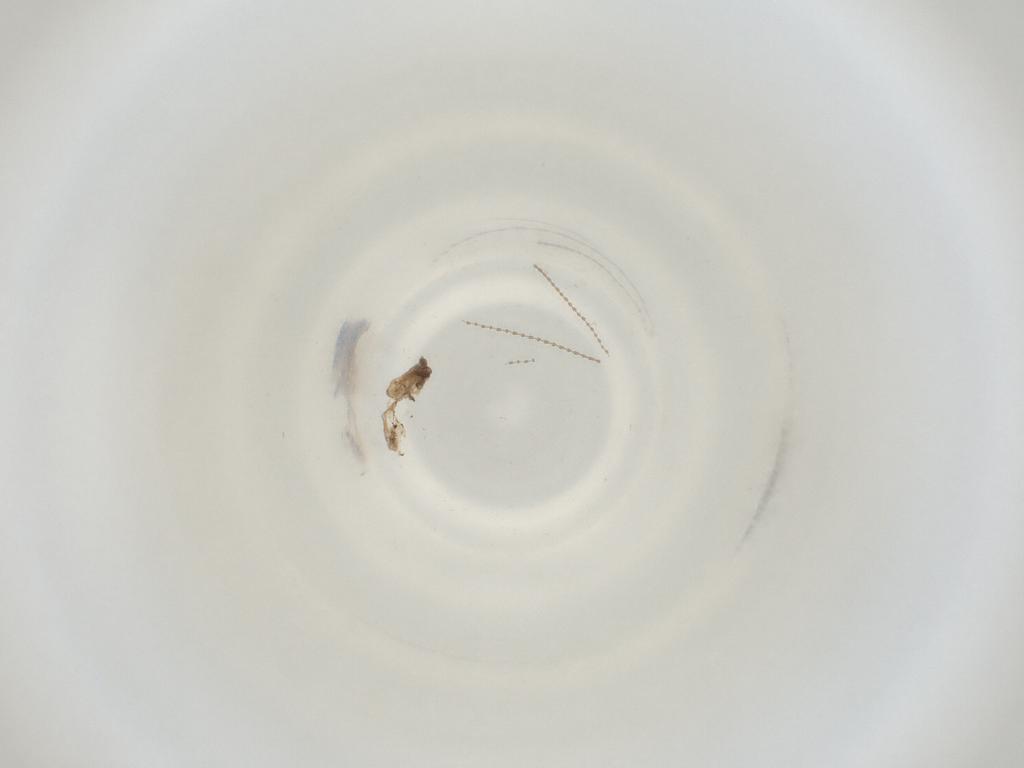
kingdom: Animalia
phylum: Arthropoda
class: Insecta
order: Diptera
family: Cecidomyiidae
